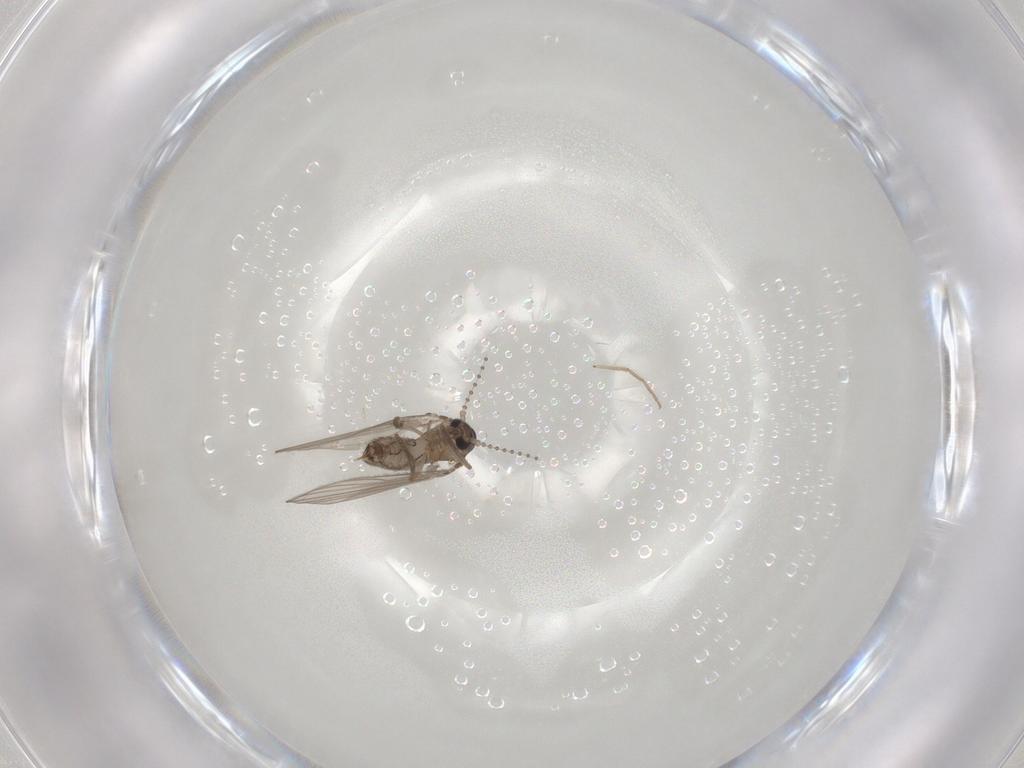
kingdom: Animalia
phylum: Arthropoda
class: Insecta
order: Diptera
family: Psychodidae
